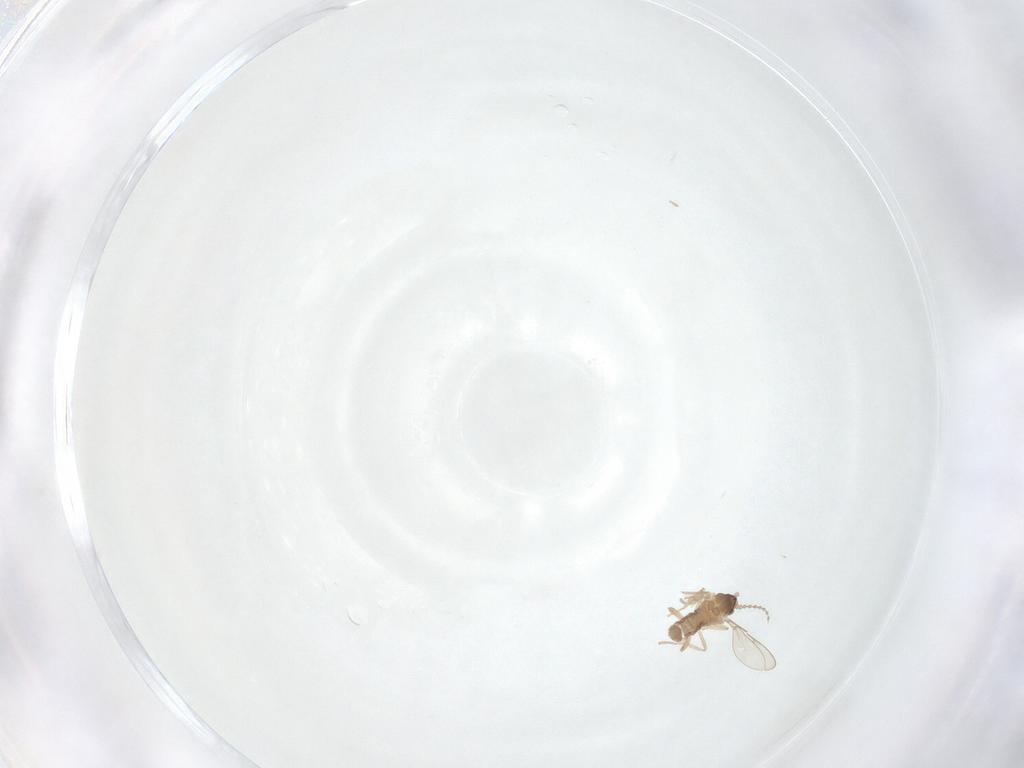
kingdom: Animalia
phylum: Arthropoda
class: Insecta
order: Diptera
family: Cecidomyiidae
